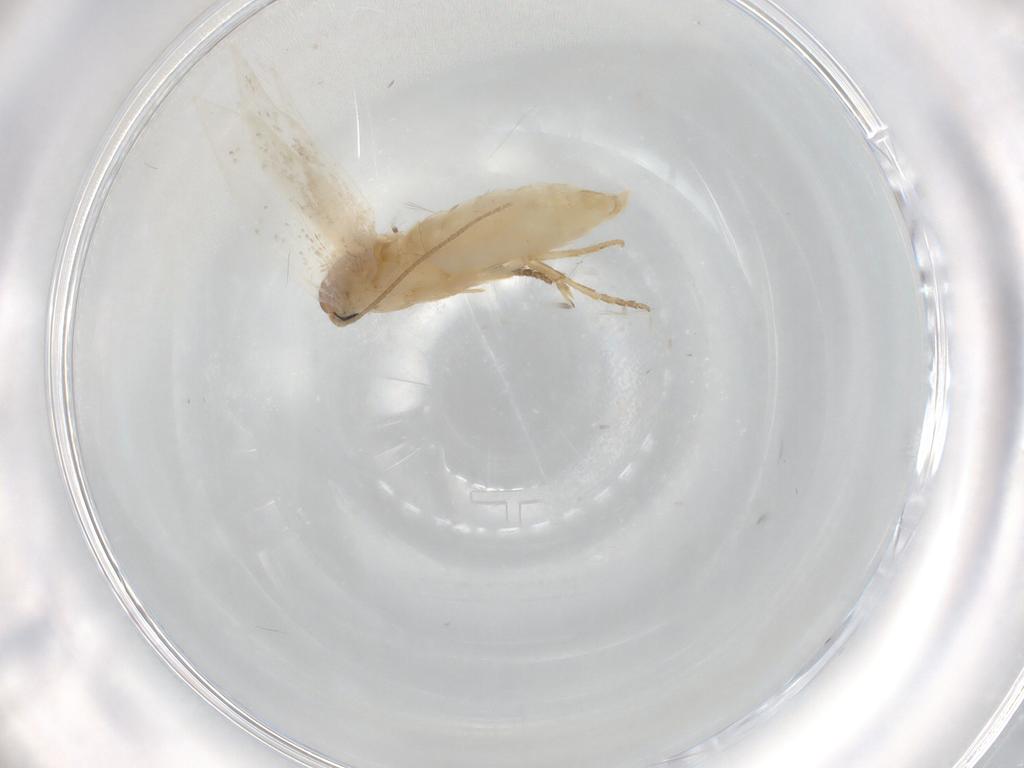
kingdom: Animalia
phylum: Arthropoda
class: Insecta
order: Lepidoptera
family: Elachistidae
